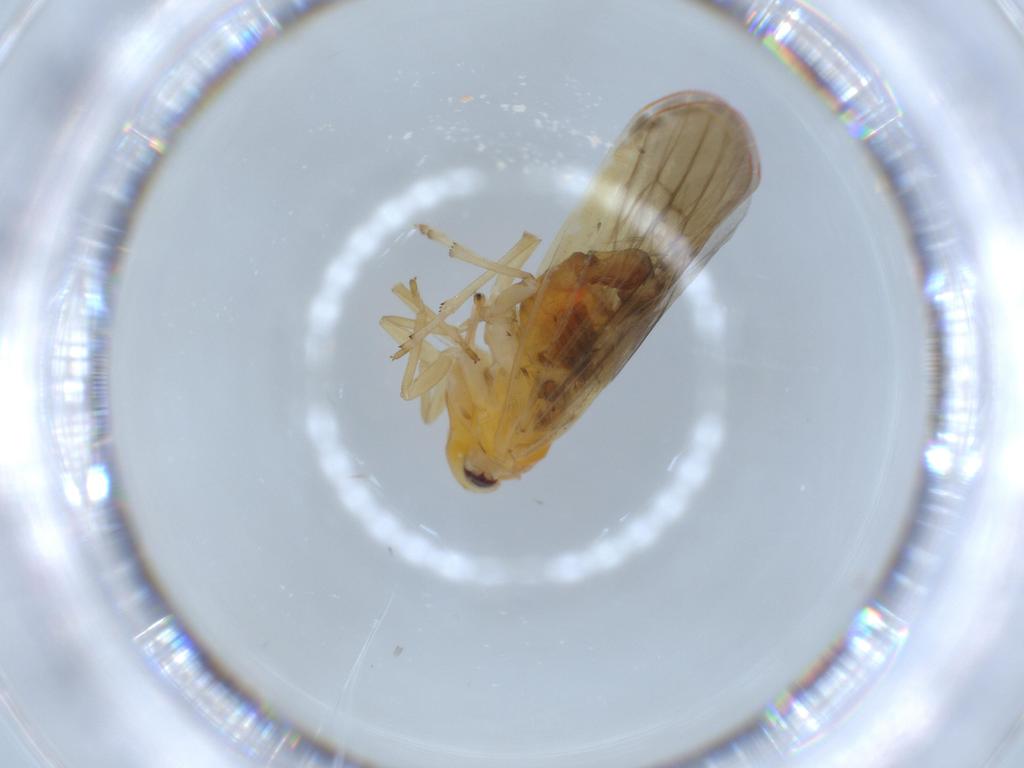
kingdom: Animalia
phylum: Arthropoda
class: Insecta
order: Hemiptera
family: Derbidae
